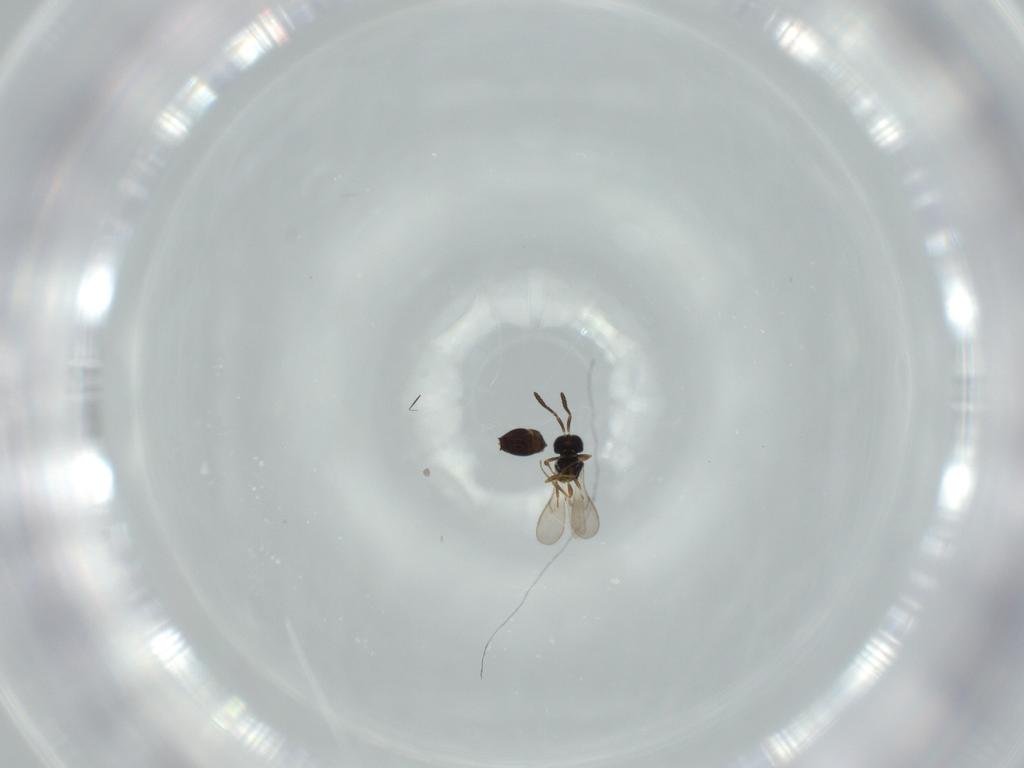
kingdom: Animalia
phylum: Arthropoda
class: Insecta
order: Hymenoptera
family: Scelionidae
